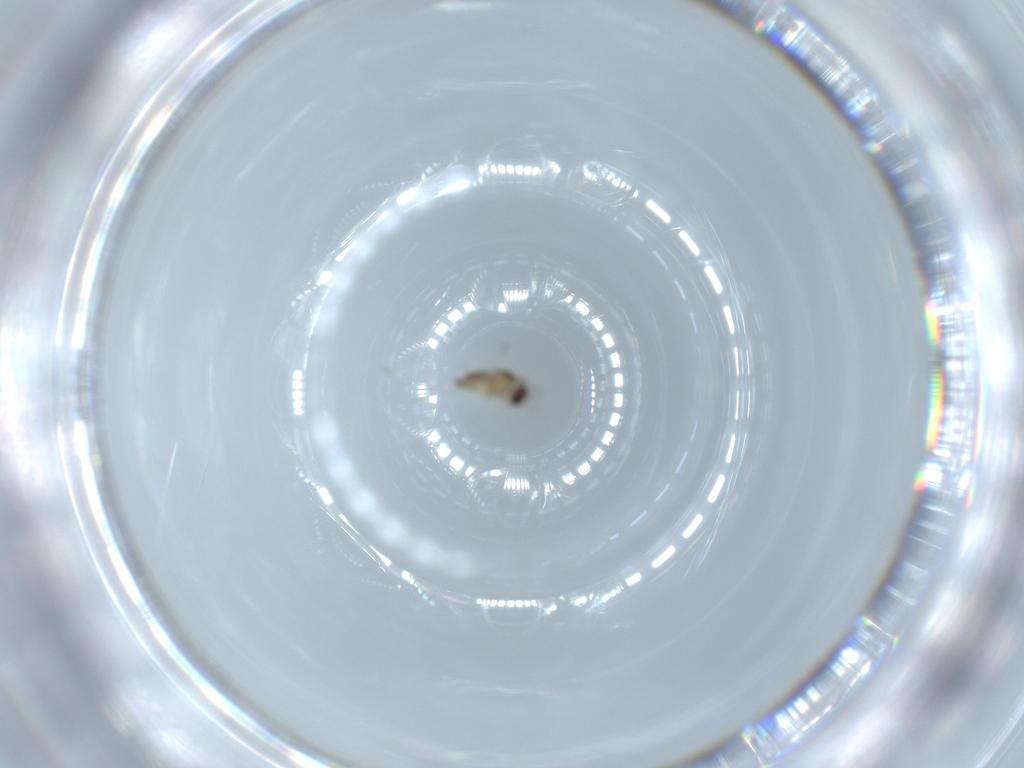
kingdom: Animalia
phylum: Arthropoda
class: Insecta
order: Diptera
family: Cecidomyiidae
